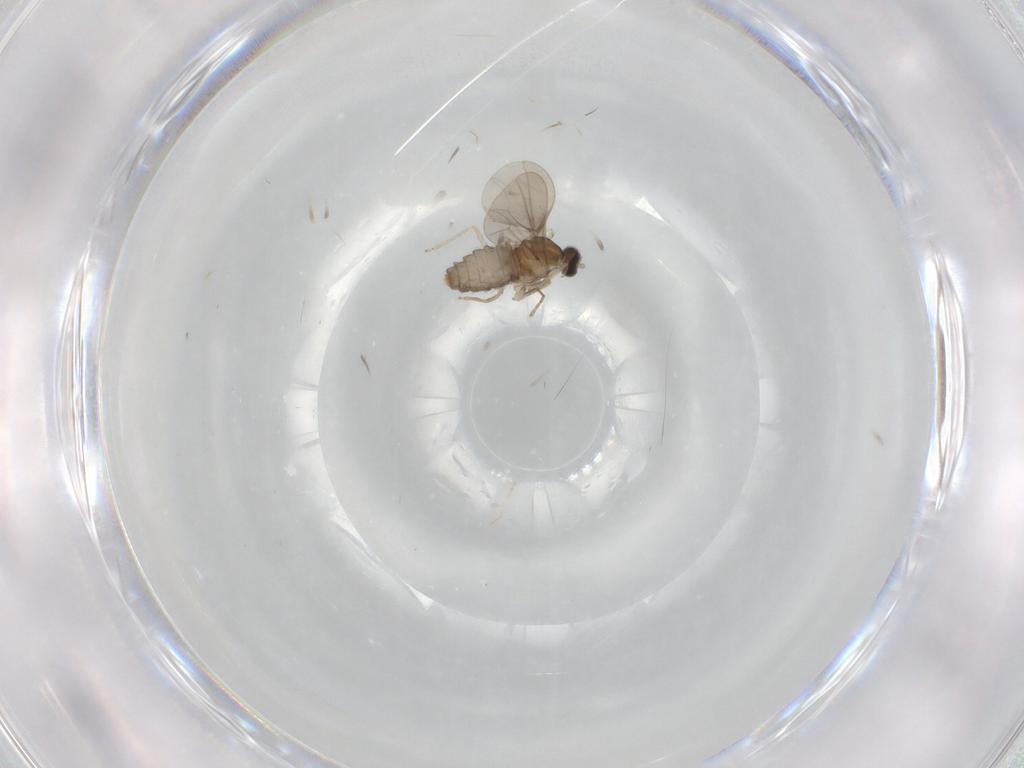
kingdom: Animalia
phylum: Arthropoda
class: Insecta
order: Diptera
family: Cecidomyiidae
